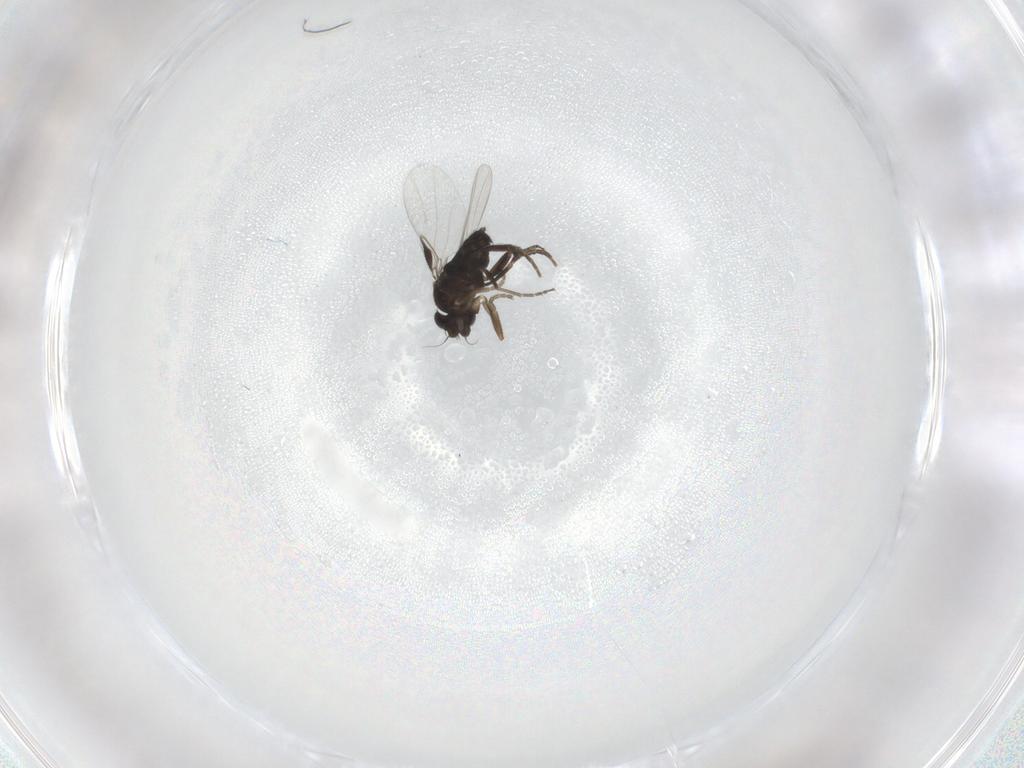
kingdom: Animalia
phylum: Arthropoda
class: Insecta
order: Diptera
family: Phoridae
